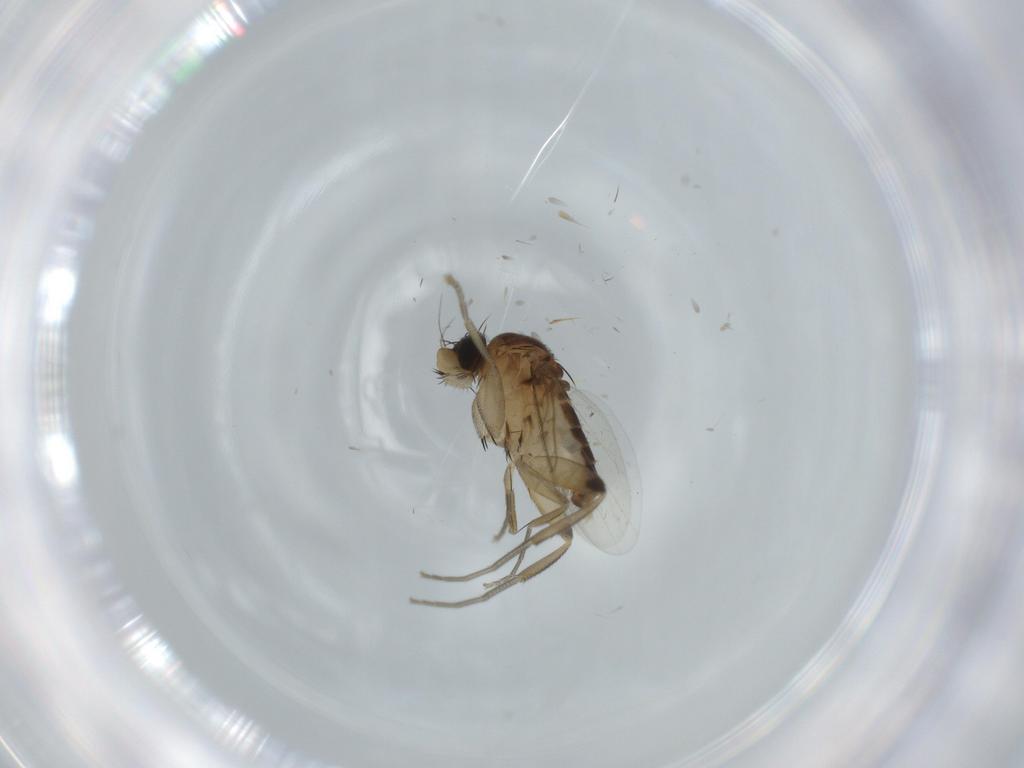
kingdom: Animalia
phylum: Arthropoda
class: Insecta
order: Diptera
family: Phoridae
